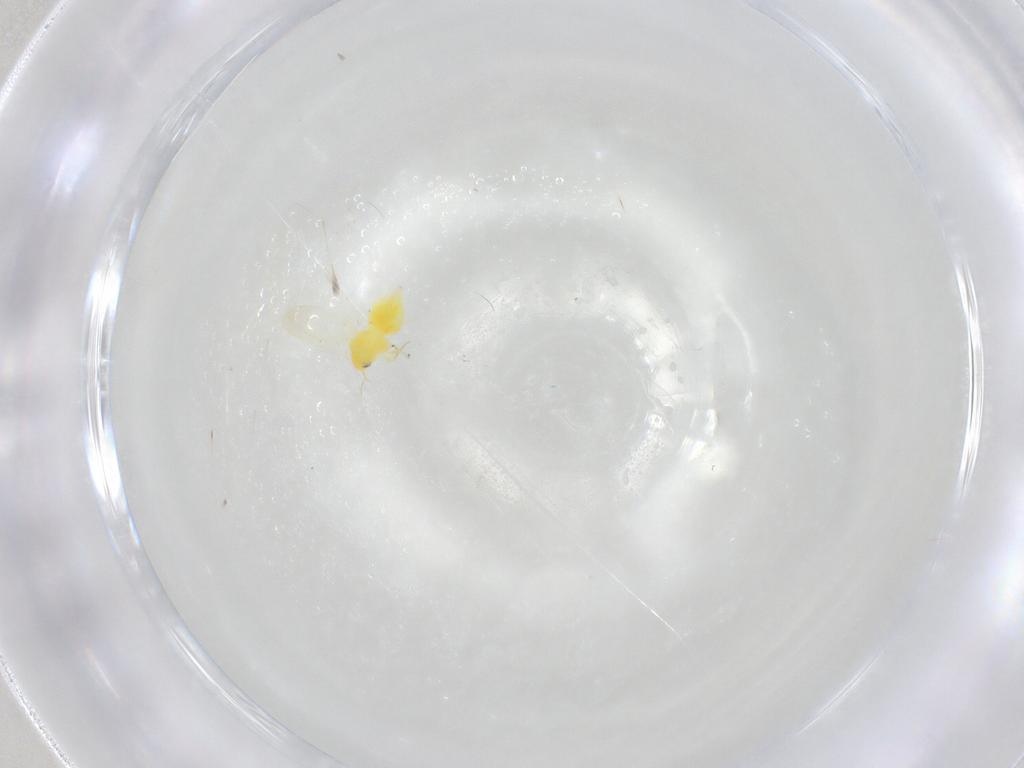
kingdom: Animalia
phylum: Arthropoda
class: Insecta
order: Hemiptera
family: Aleyrodidae
